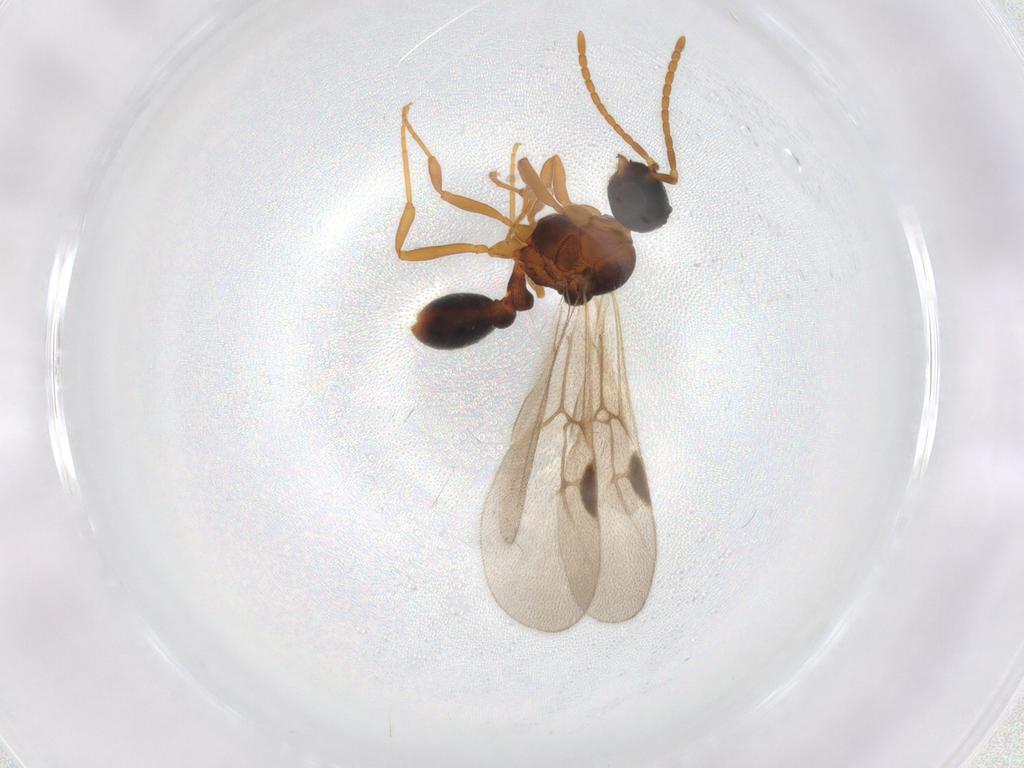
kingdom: Animalia
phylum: Arthropoda
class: Insecta
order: Hymenoptera
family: Formicidae
